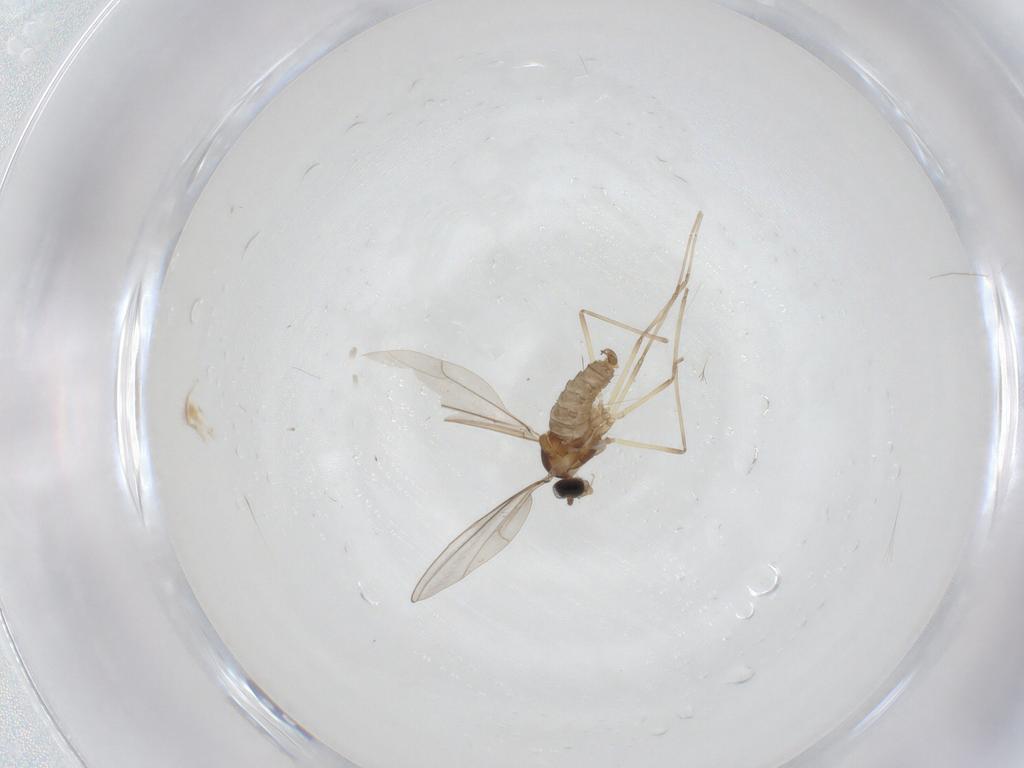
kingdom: Animalia
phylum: Arthropoda
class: Insecta
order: Diptera
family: Cecidomyiidae
